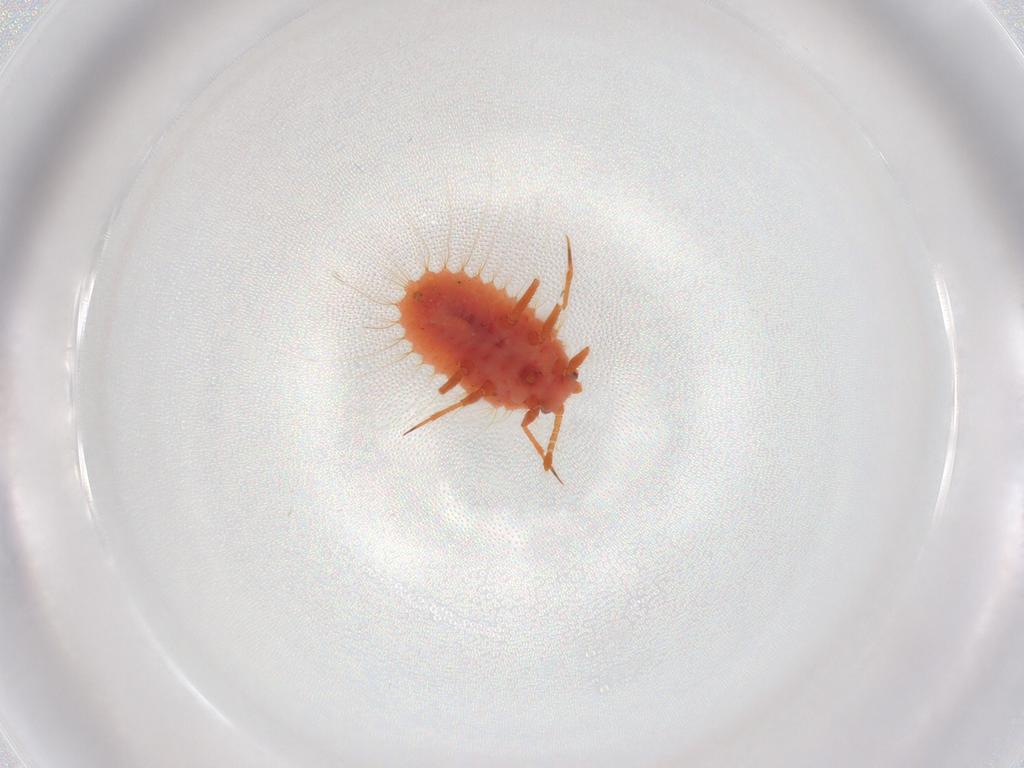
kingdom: Animalia
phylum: Arthropoda
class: Insecta
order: Hemiptera
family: Coccoidea_incertae_sedis
